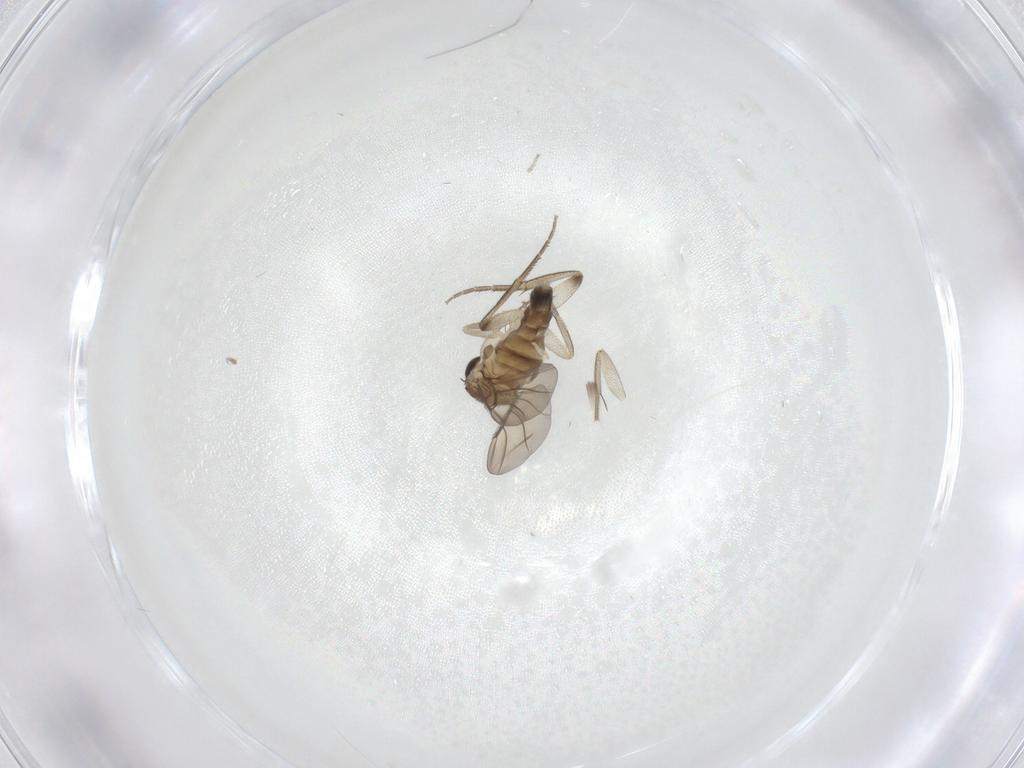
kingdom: Animalia
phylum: Arthropoda
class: Insecta
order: Diptera
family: Phoridae
